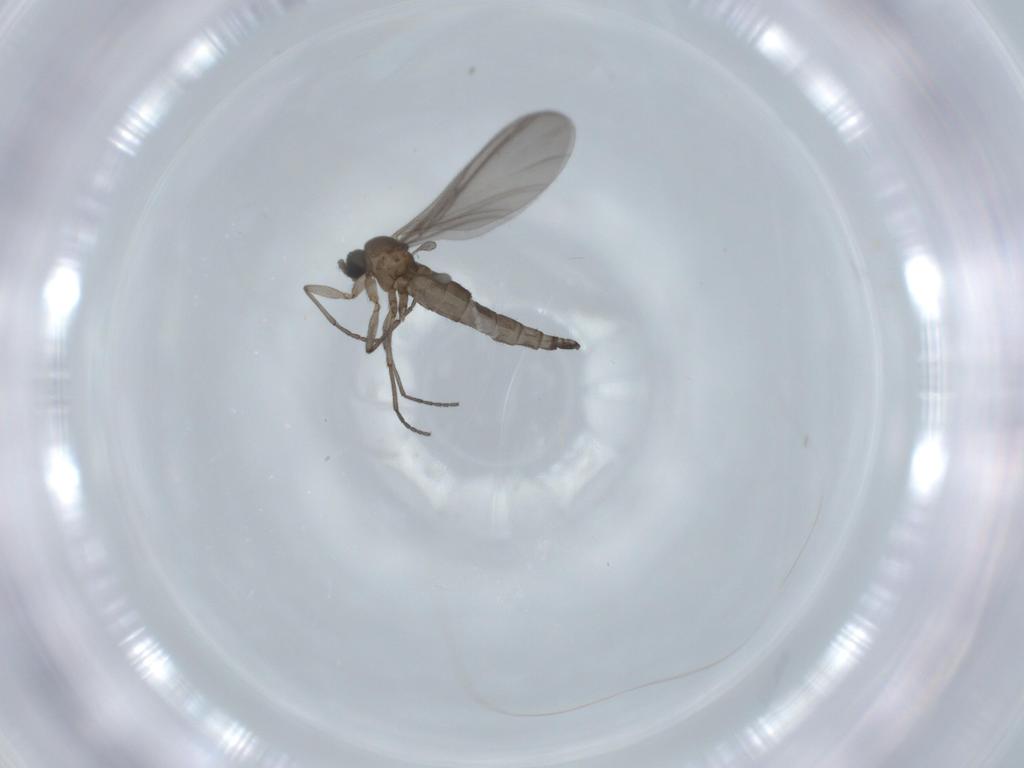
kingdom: Animalia
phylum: Arthropoda
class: Insecta
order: Diptera
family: Sciaridae
